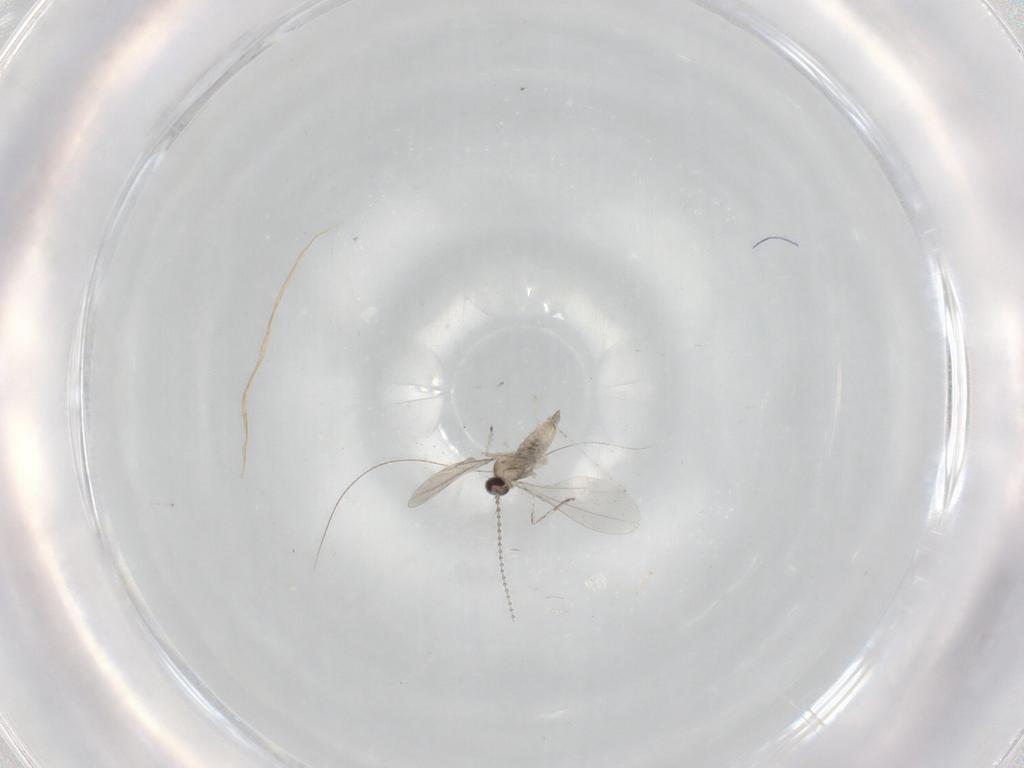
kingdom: Animalia
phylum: Arthropoda
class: Insecta
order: Diptera
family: Cecidomyiidae
